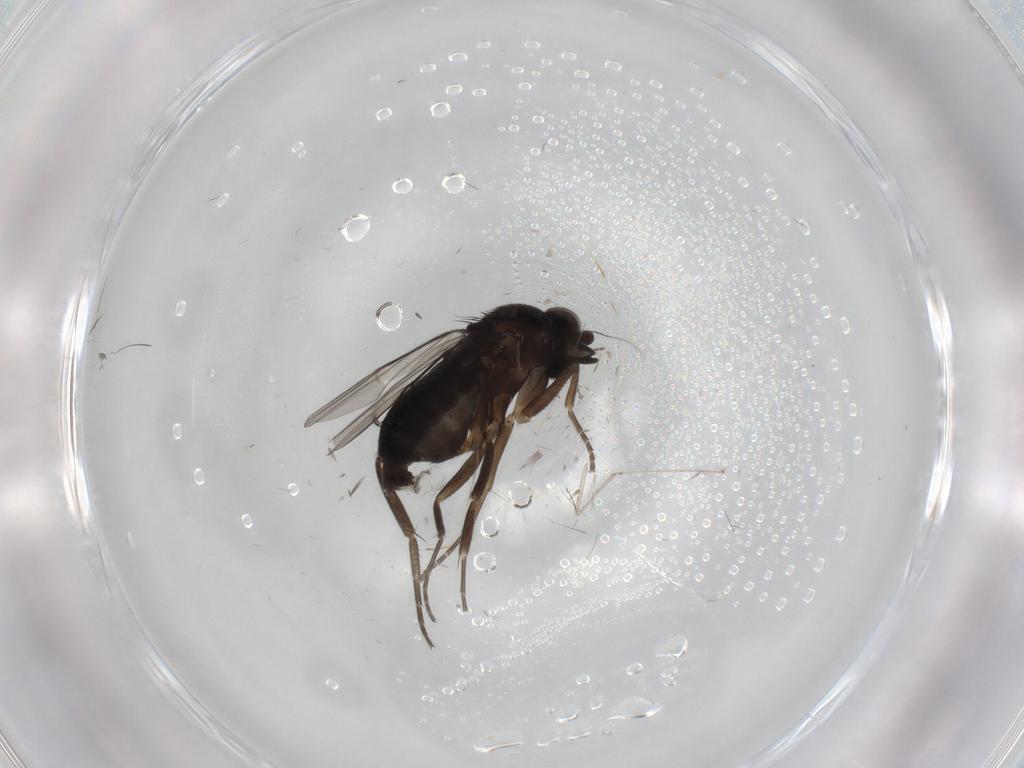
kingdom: Animalia
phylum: Arthropoda
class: Insecta
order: Diptera
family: Phoridae
